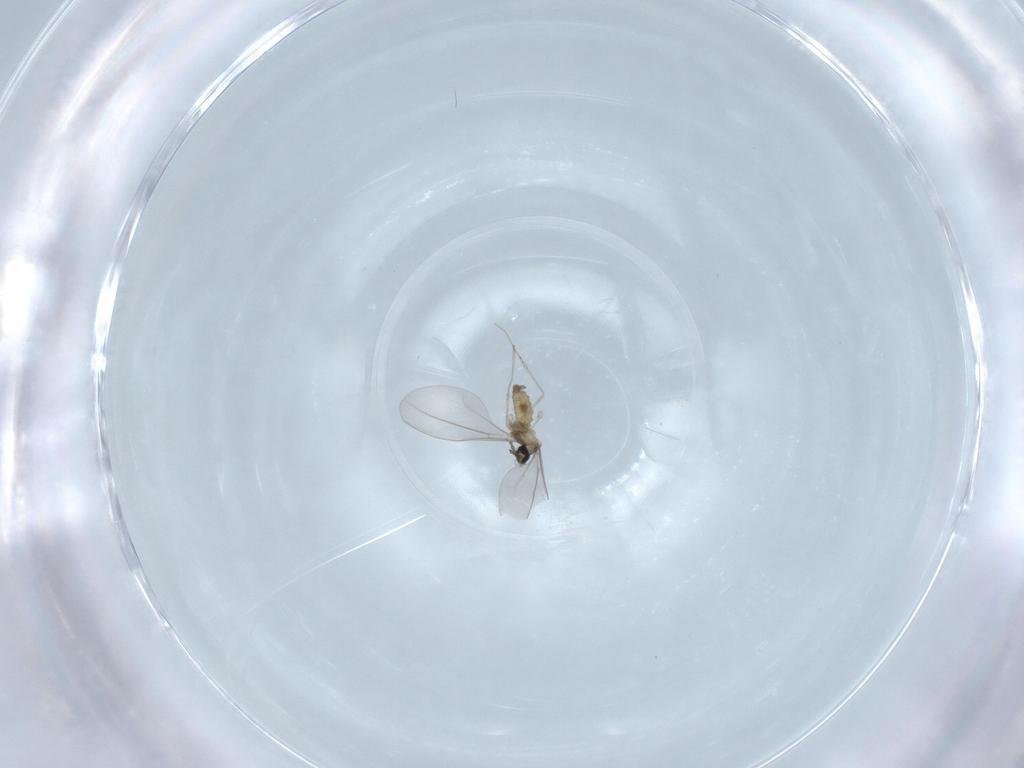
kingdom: Animalia
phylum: Arthropoda
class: Insecta
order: Diptera
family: Cecidomyiidae
